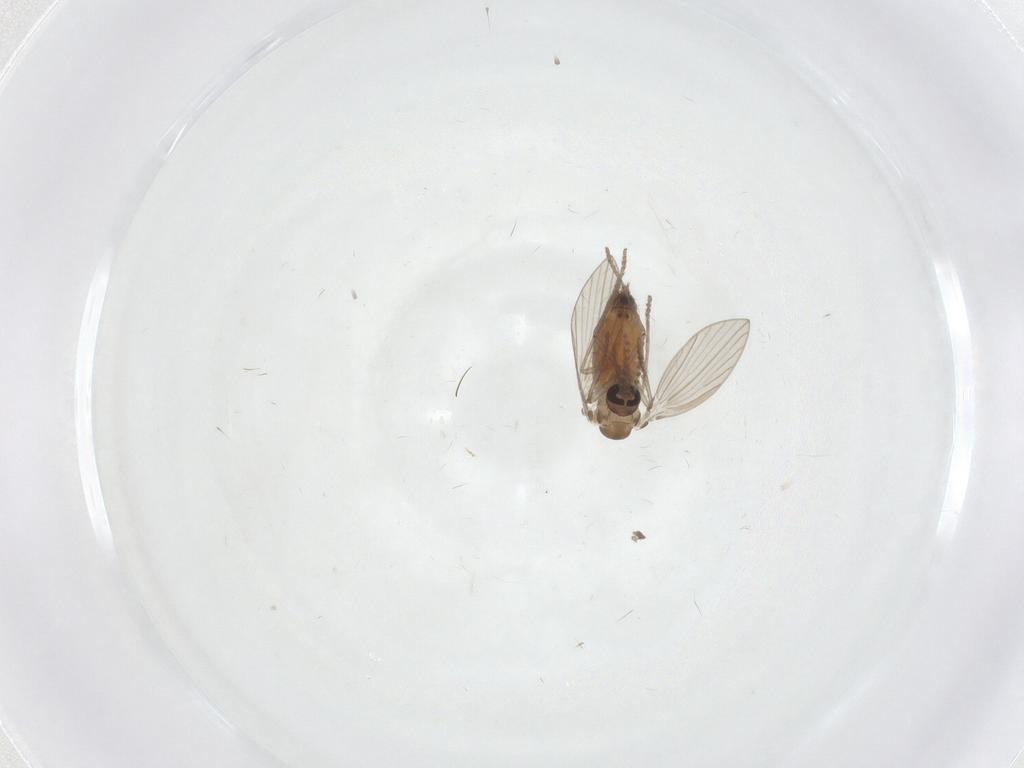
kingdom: Animalia
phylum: Arthropoda
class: Insecta
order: Diptera
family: Psychodidae
